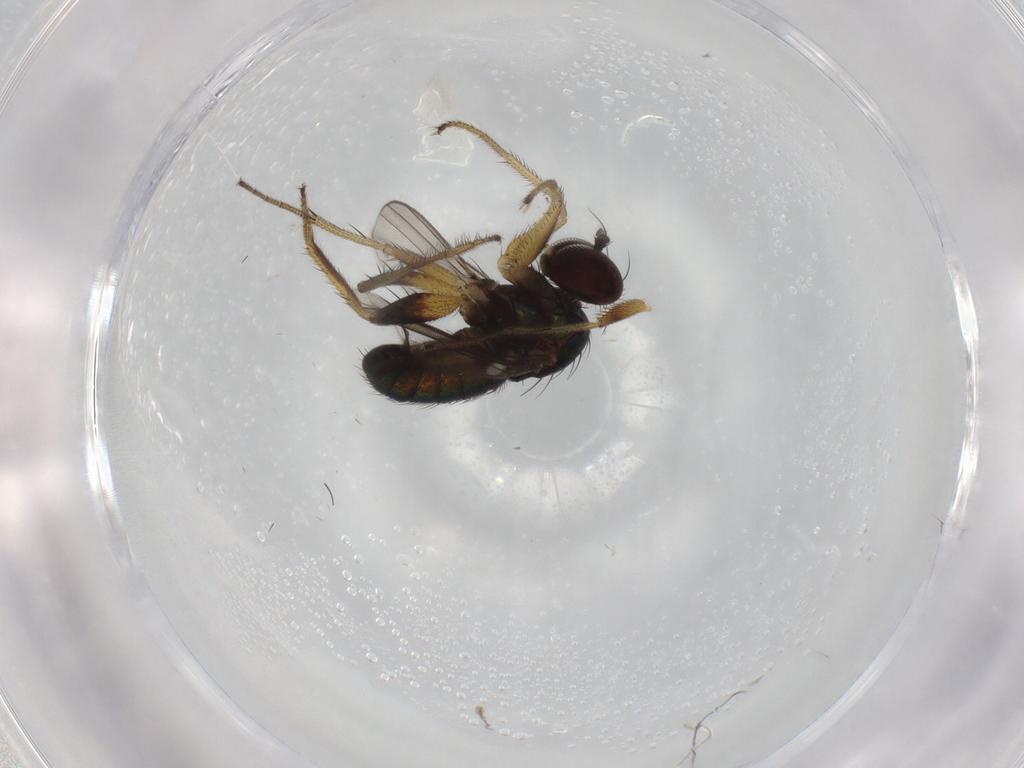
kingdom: Animalia
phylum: Arthropoda
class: Insecta
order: Diptera
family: Dolichopodidae
